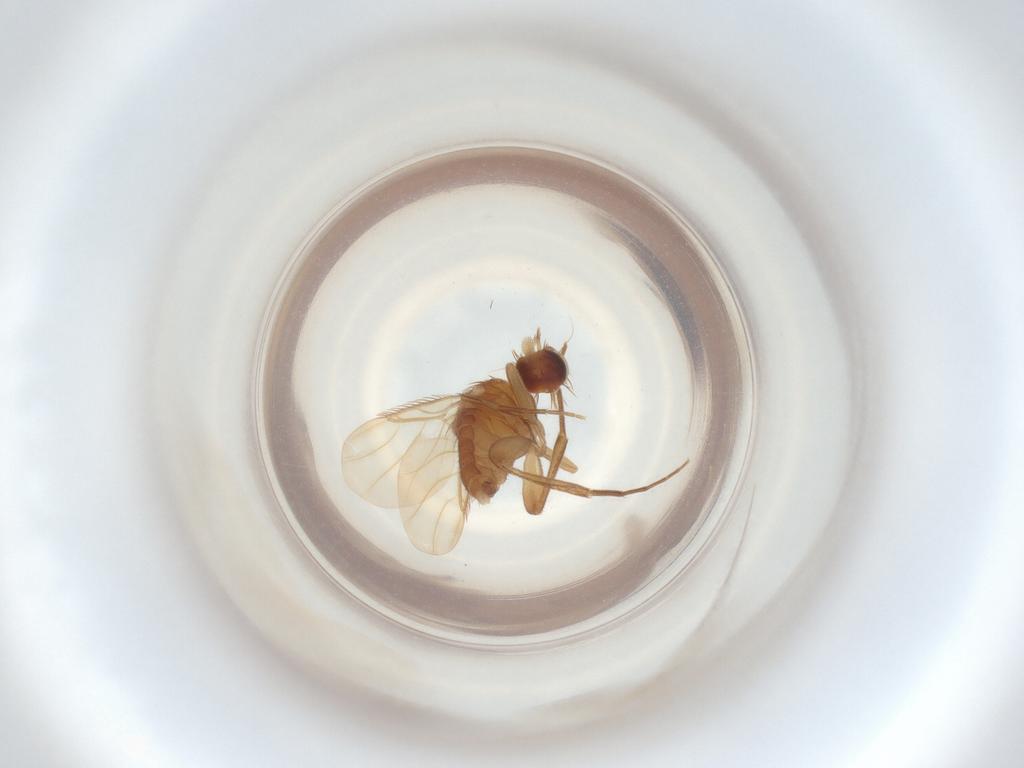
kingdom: Animalia
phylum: Arthropoda
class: Insecta
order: Diptera
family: Phoridae
